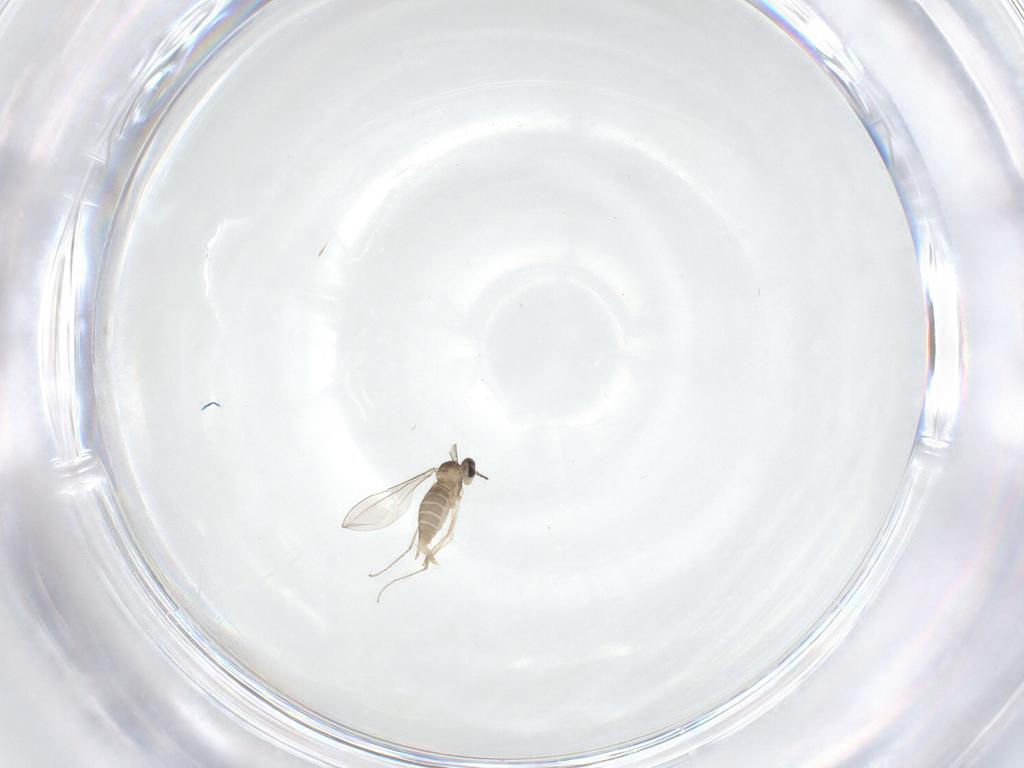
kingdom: Animalia
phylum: Arthropoda
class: Insecta
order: Diptera
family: Cecidomyiidae
